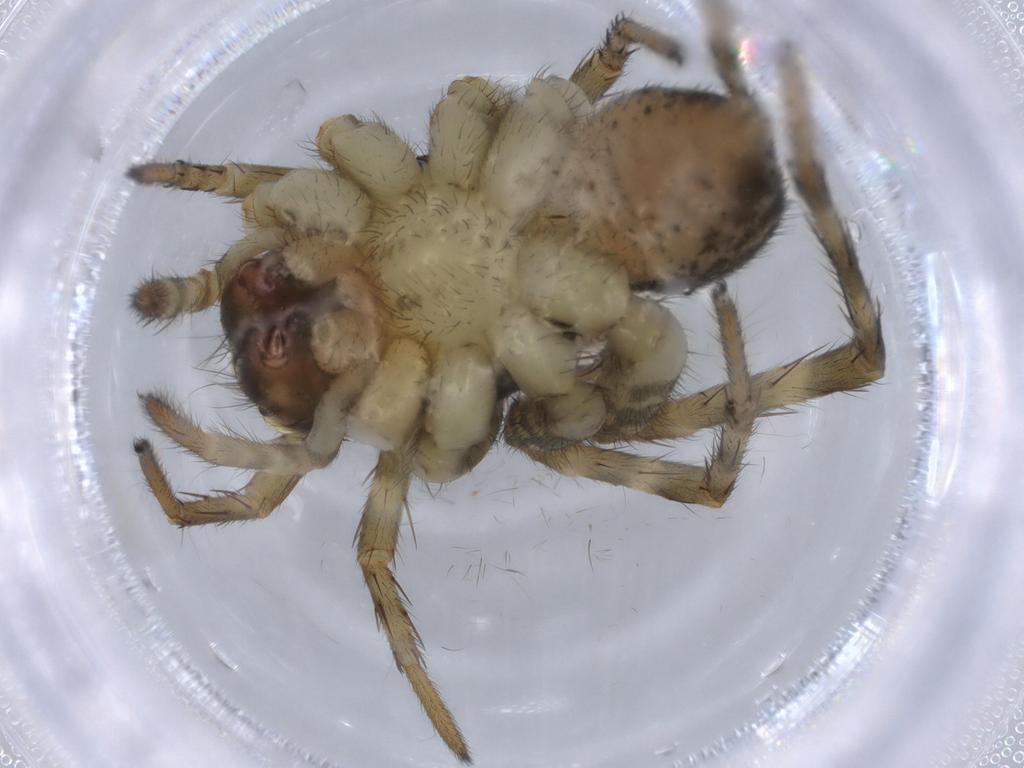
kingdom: Animalia
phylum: Arthropoda
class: Arachnida
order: Araneae
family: Lycosidae
